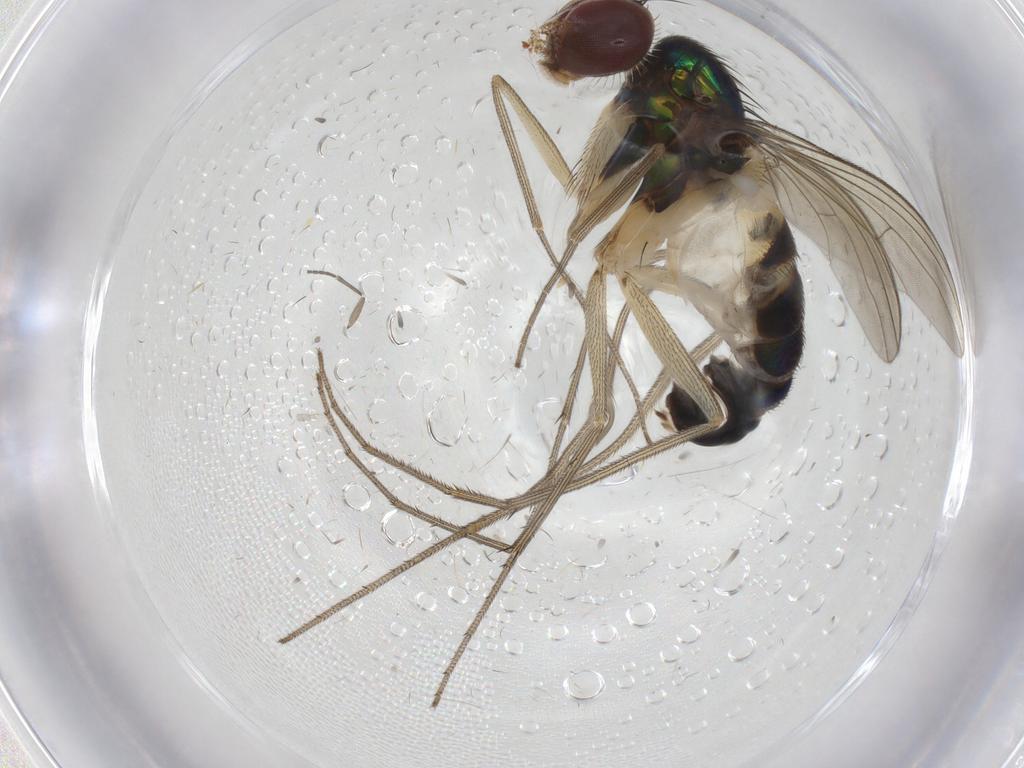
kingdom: Animalia
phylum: Arthropoda
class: Insecta
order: Diptera
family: Dolichopodidae
